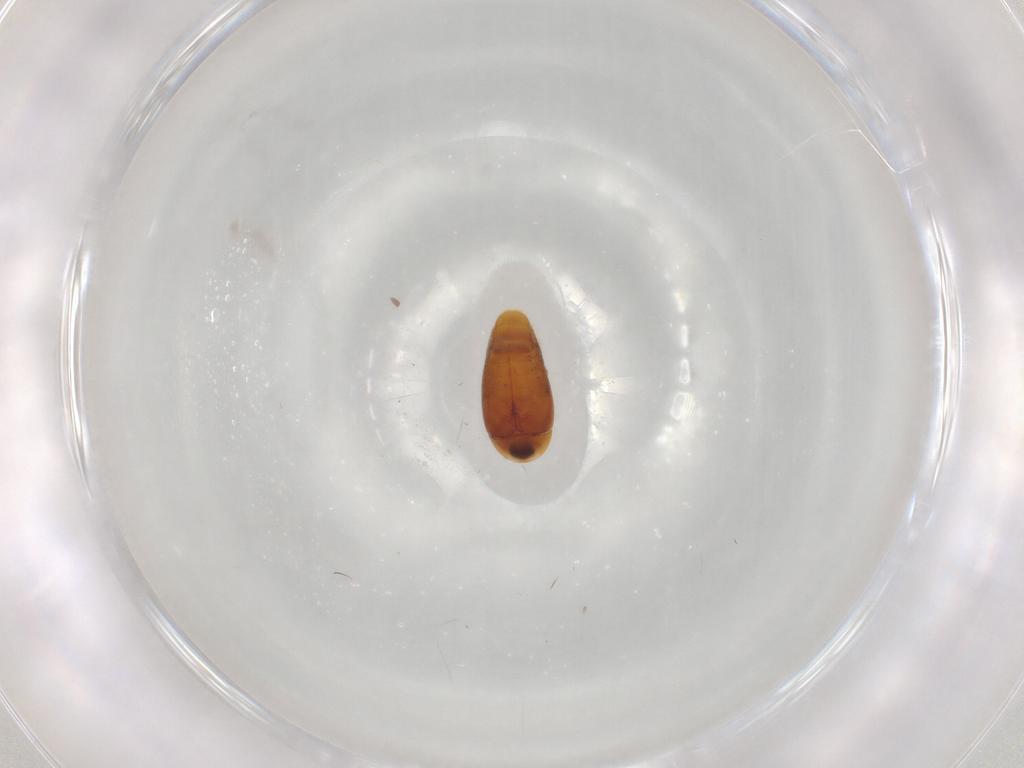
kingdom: Animalia
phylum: Arthropoda
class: Insecta
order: Coleoptera
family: Corylophidae
